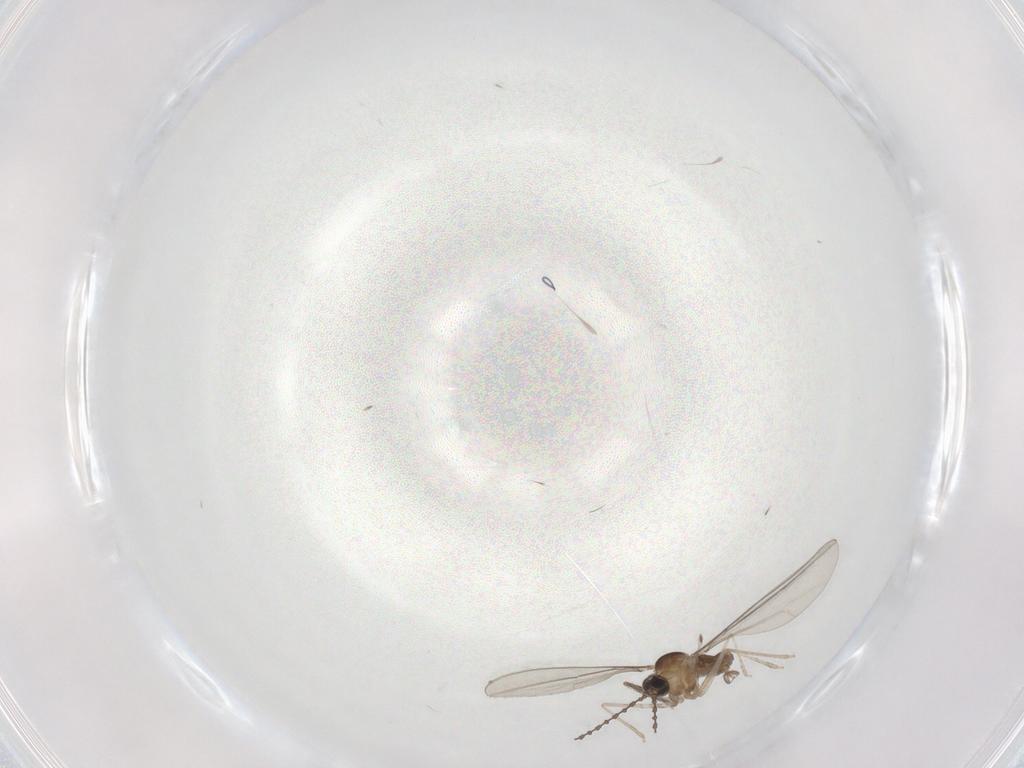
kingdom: Animalia
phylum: Arthropoda
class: Insecta
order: Diptera
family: Cecidomyiidae
